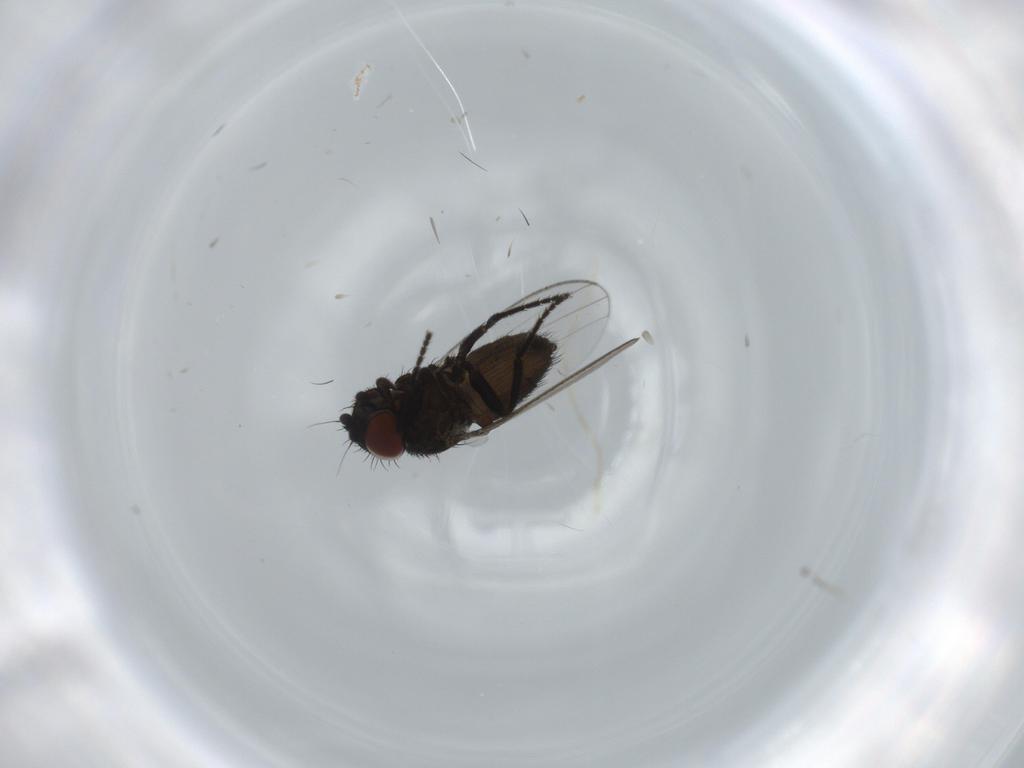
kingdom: Animalia
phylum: Arthropoda
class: Insecta
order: Diptera
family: Milichiidae
